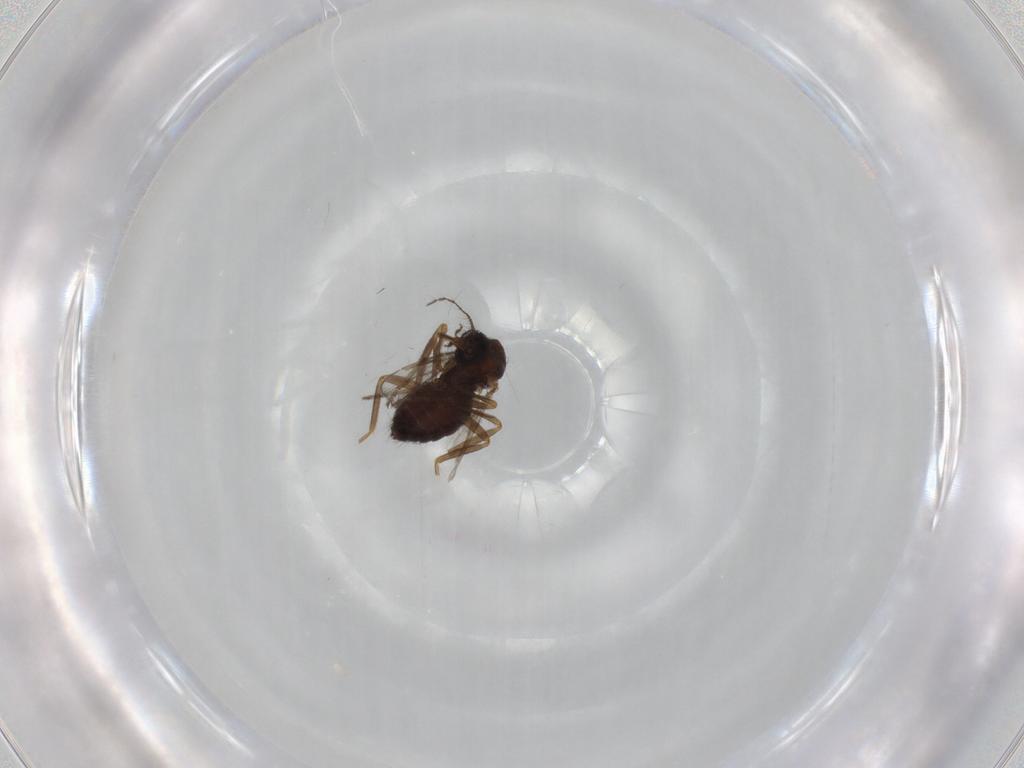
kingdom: Animalia
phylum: Arthropoda
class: Insecta
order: Diptera
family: Ceratopogonidae
